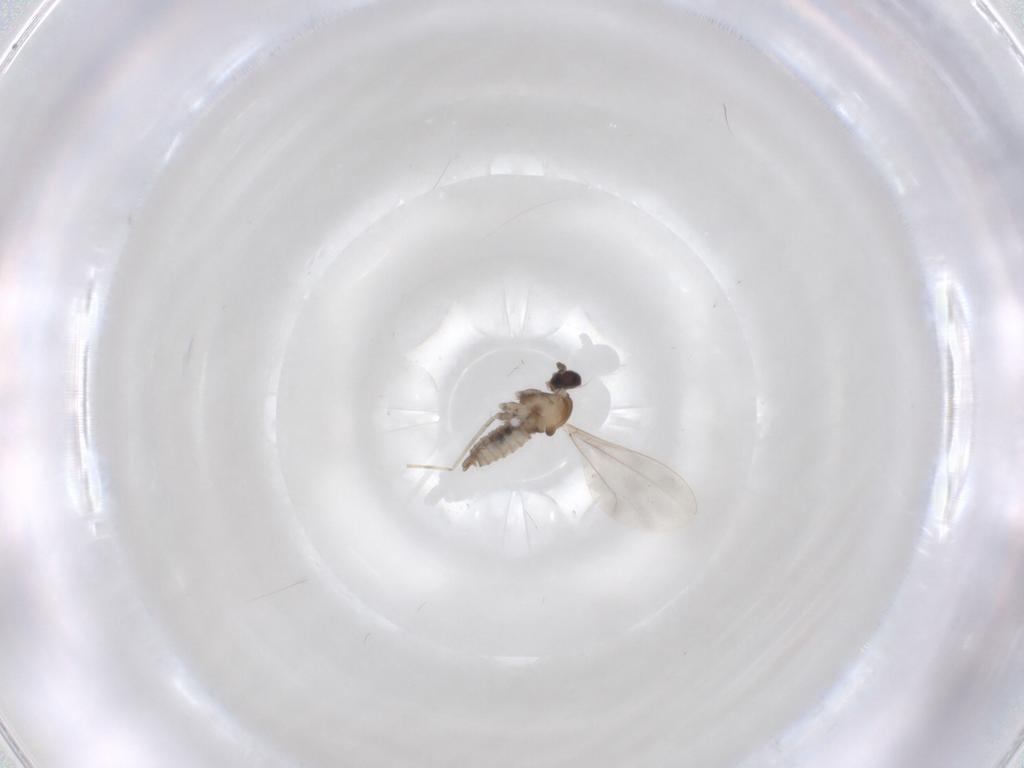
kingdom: Animalia
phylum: Arthropoda
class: Insecta
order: Diptera
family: Cecidomyiidae
